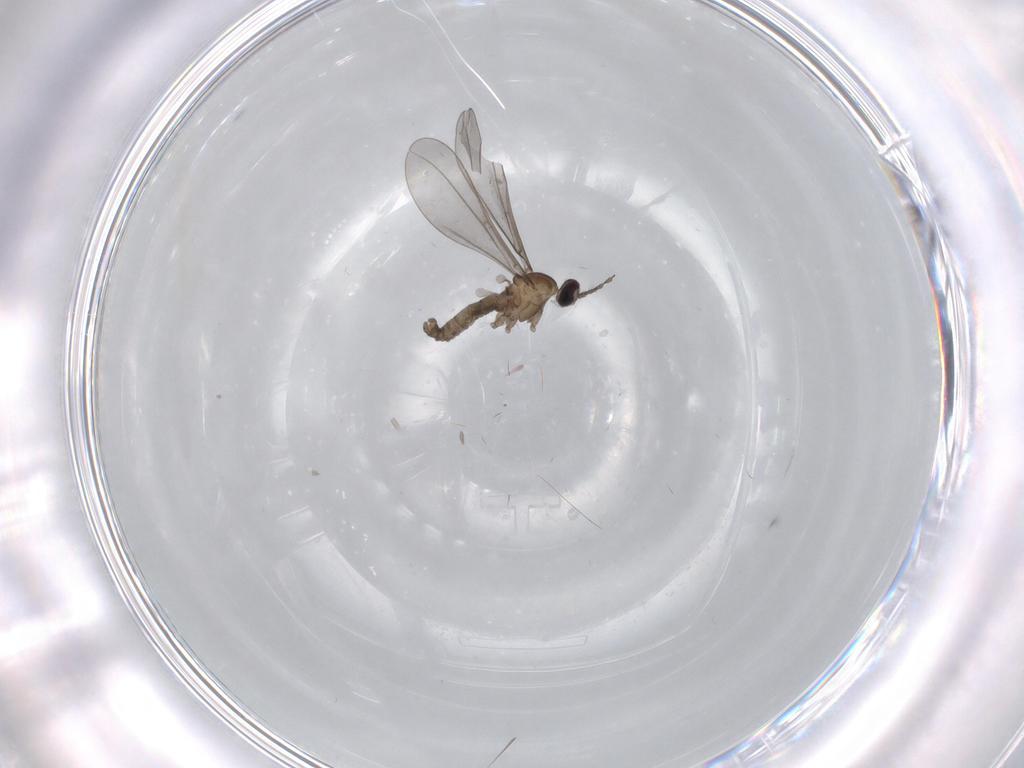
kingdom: Animalia
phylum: Arthropoda
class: Insecta
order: Diptera
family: Cecidomyiidae
